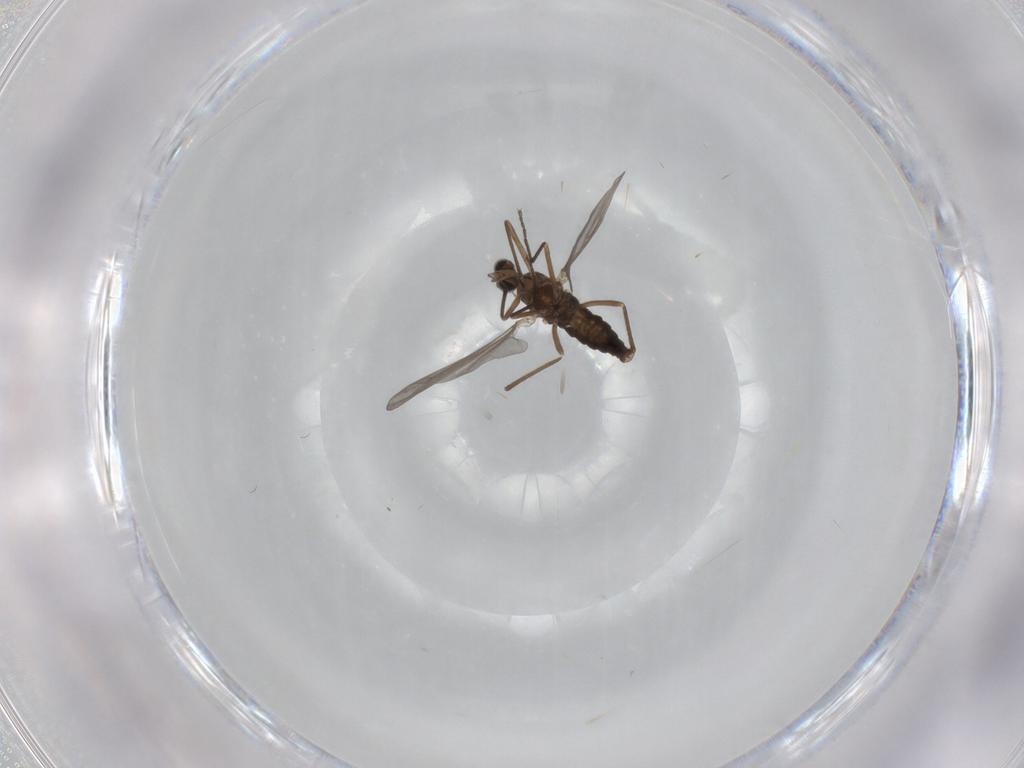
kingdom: Animalia
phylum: Arthropoda
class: Insecta
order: Diptera
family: Cecidomyiidae
